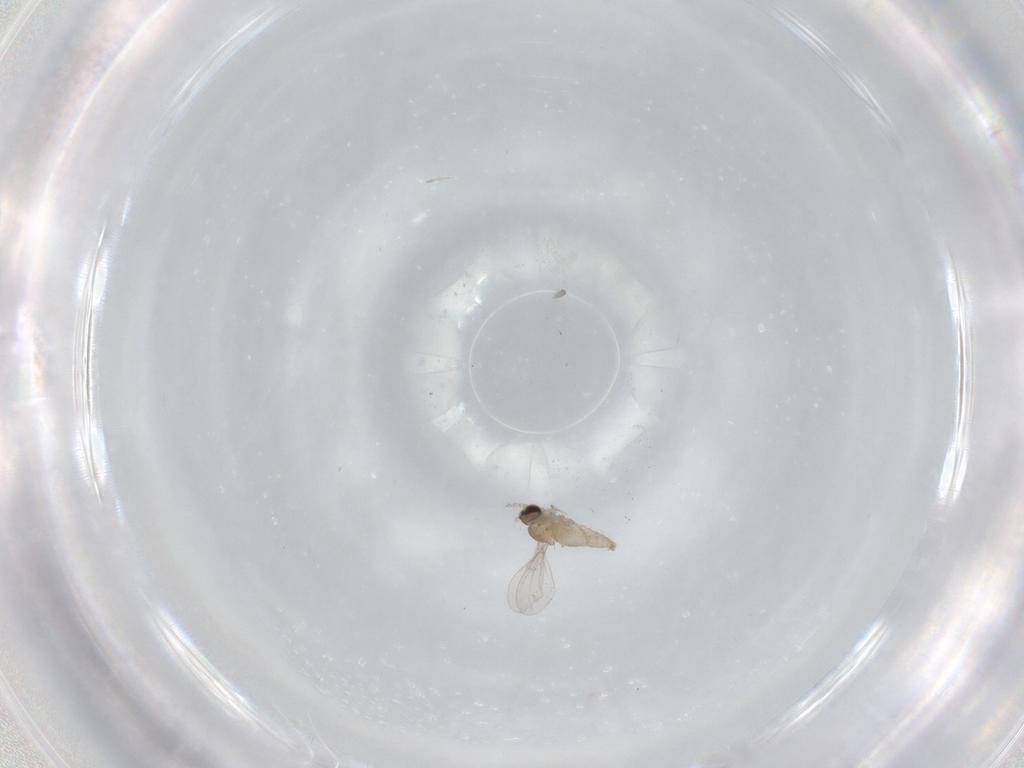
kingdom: Animalia
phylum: Arthropoda
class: Insecta
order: Diptera
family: Cecidomyiidae
